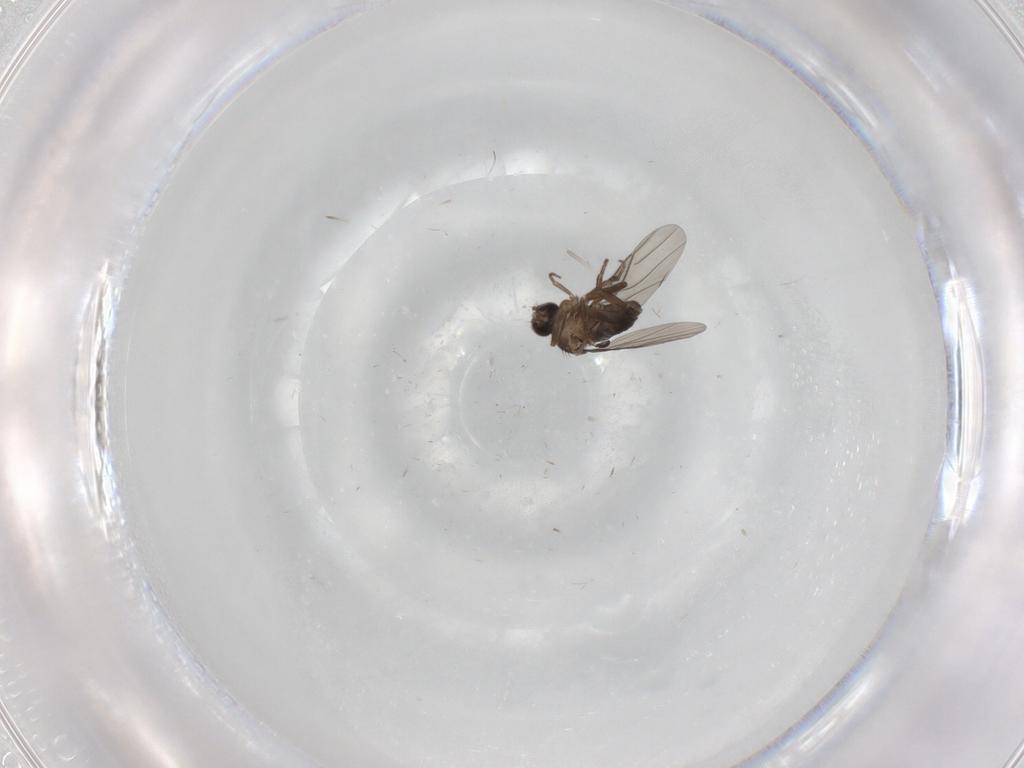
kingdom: Animalia
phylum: Arthropoda
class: Insecta
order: Diptera
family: Phoridae
